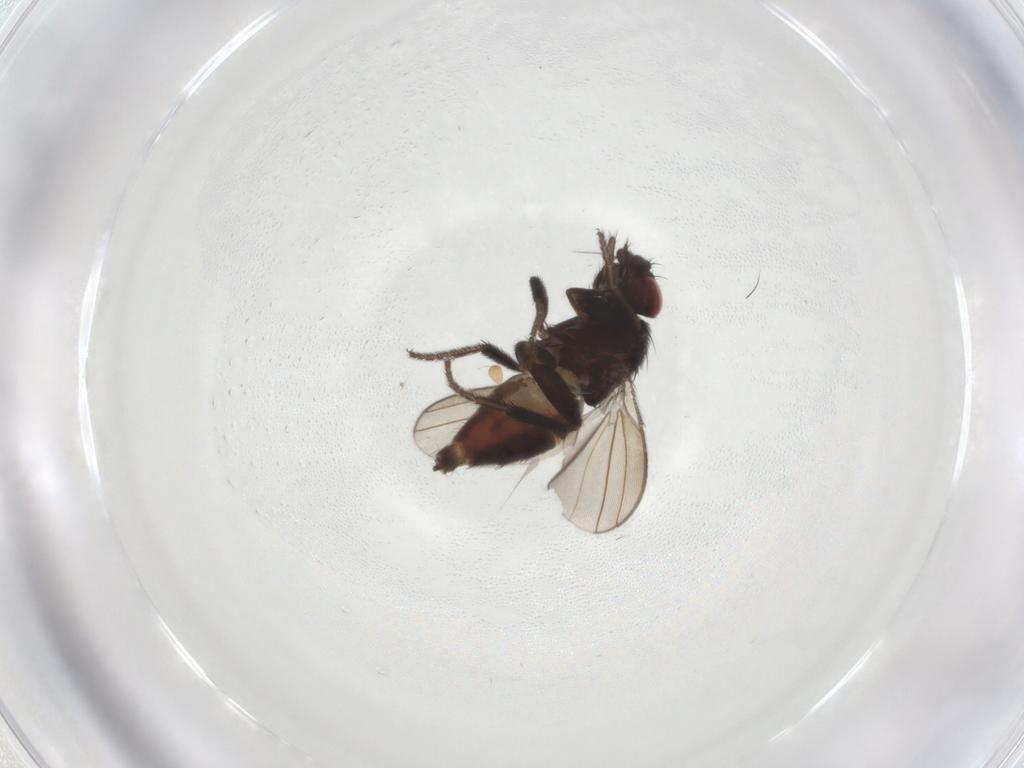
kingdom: Animalia
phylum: Arthropoda
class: Insecta
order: Diptera
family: Milichiidae
